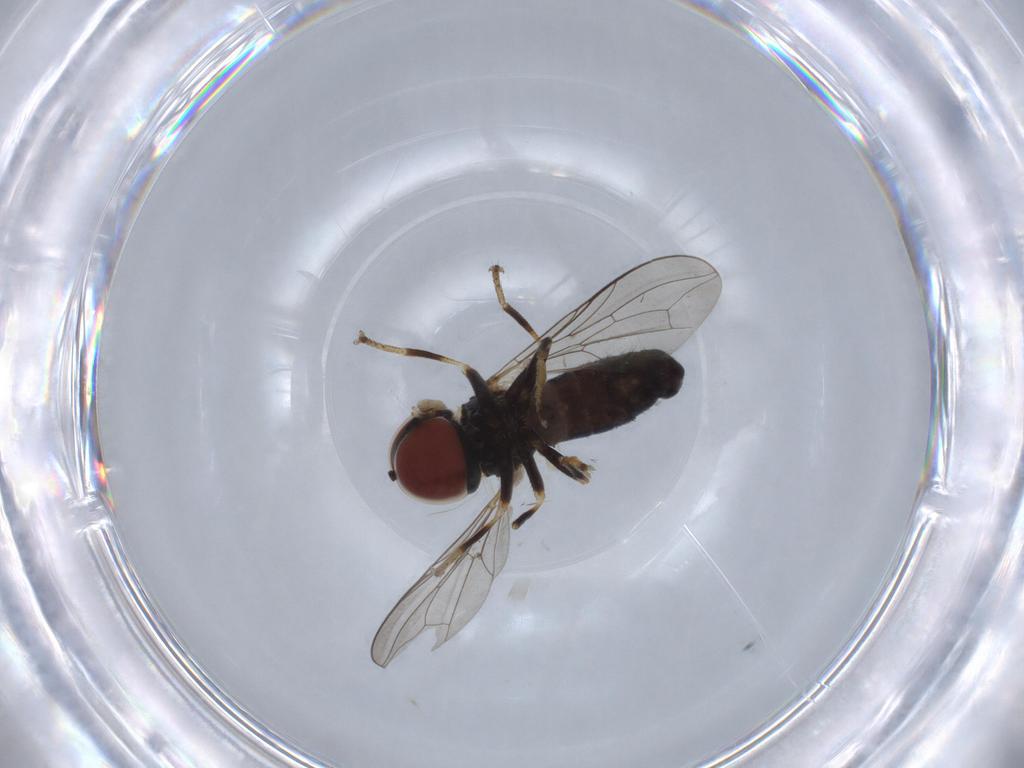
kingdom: Animalia
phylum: Arthropoda
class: Insecta
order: Diptera
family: Pipunculidae
